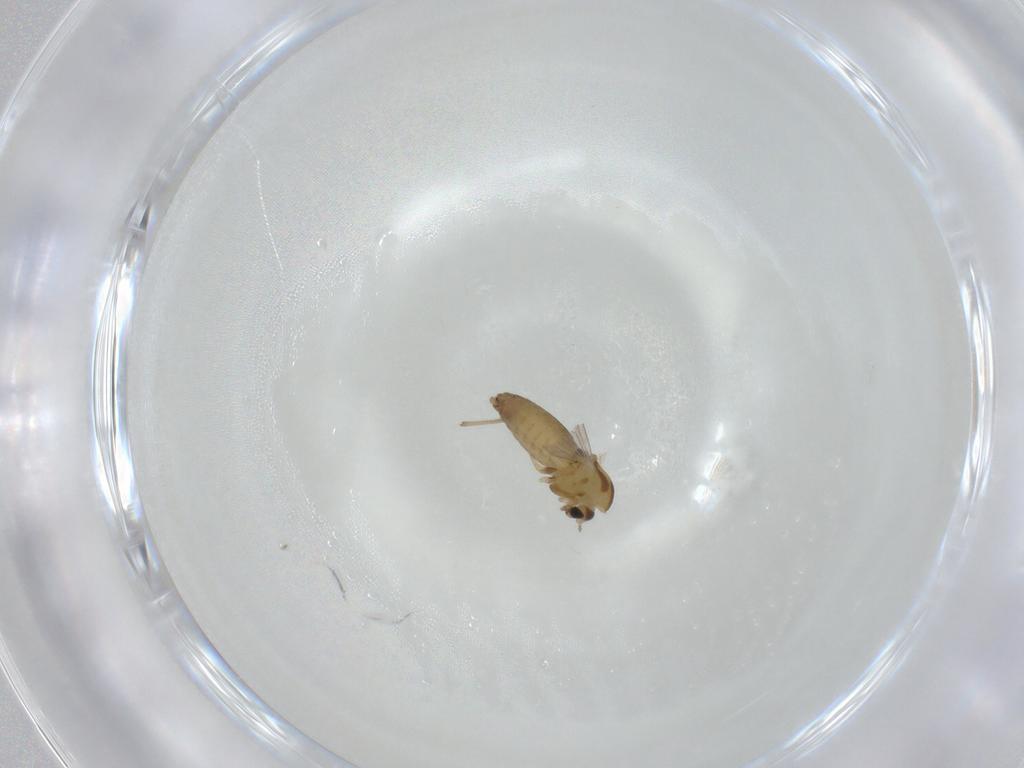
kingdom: Animalia
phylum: Arthropoda
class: Insecta
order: Diptera
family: Chironomidae
